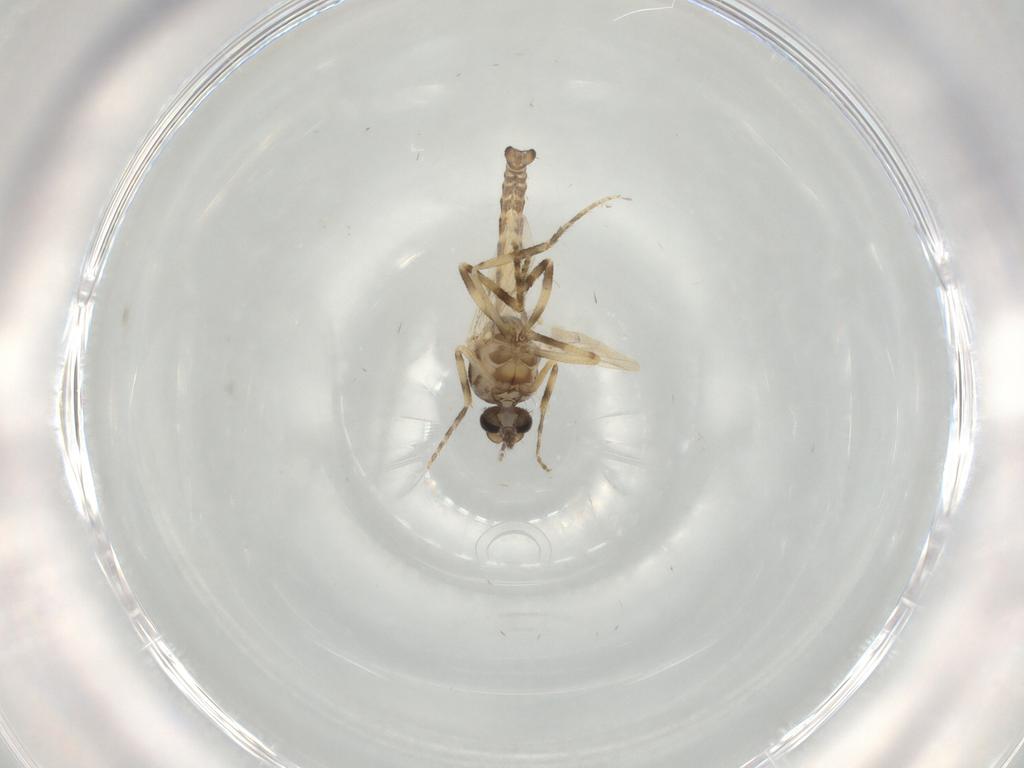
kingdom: Animalia
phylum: Arthropoda
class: Insecta
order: Diptera
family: Ceratopogonidae
